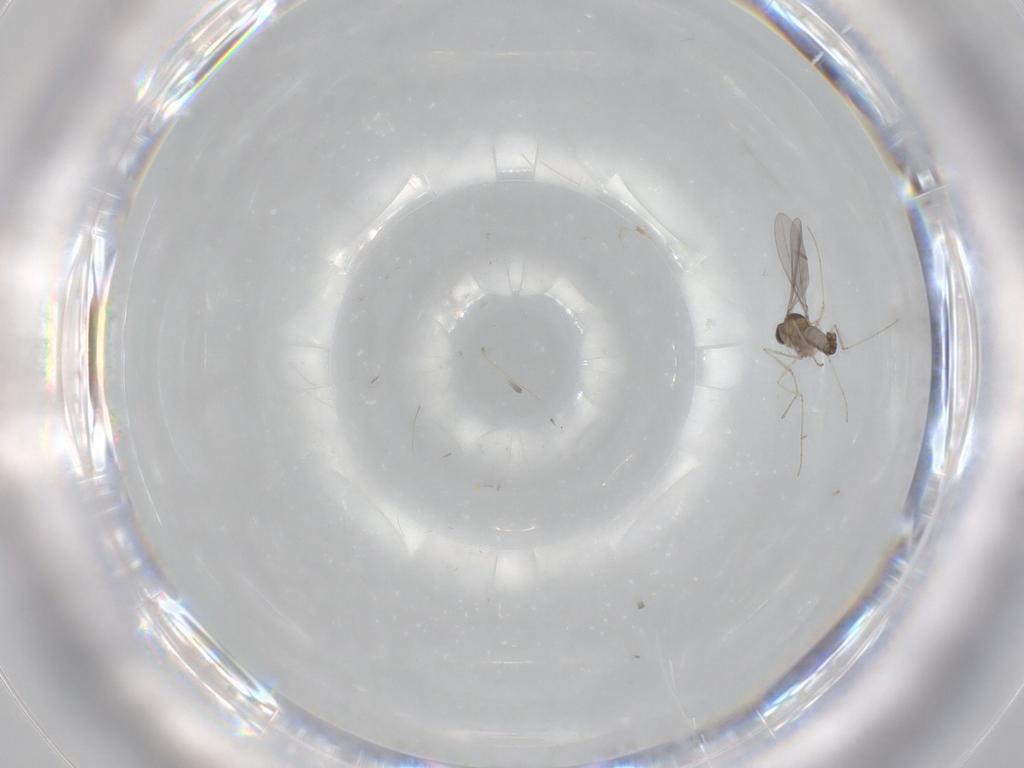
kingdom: Animalia
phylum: Arthropoda
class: Insecta
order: Diptera
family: Cecidomyiidae
